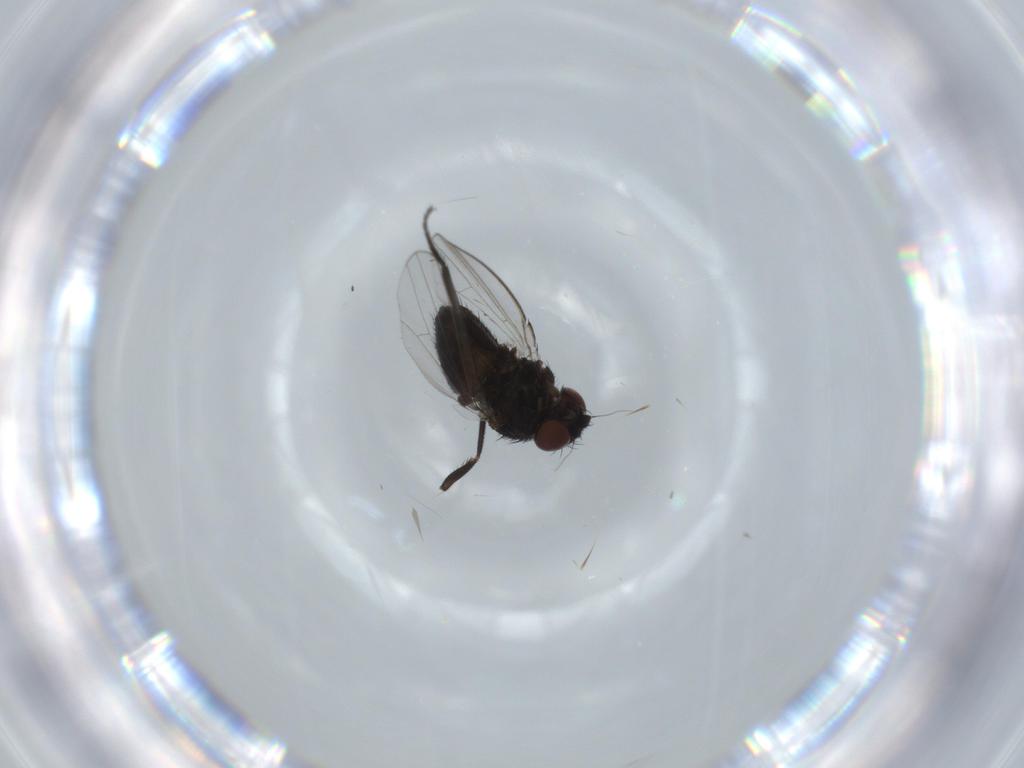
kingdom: Animalia
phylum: Arthropoda
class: Insecta
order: Diptera
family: Milichiidae
